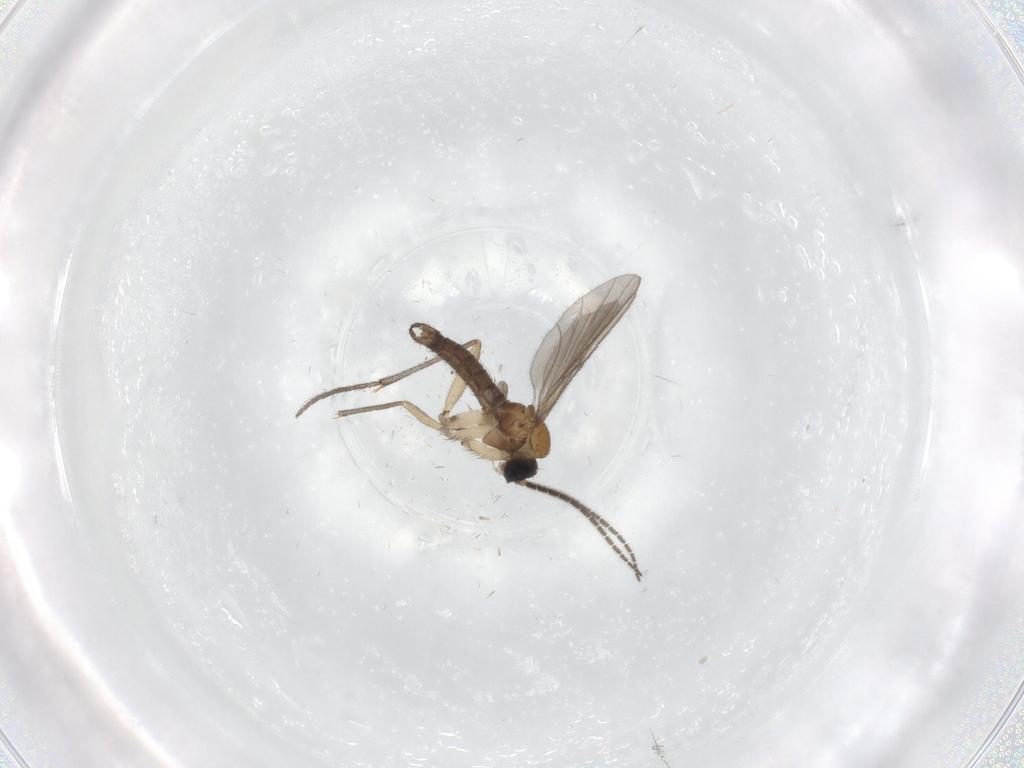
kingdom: Animalia
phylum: Arthropoda
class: Insecta
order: Diptera
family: Sciaridae
